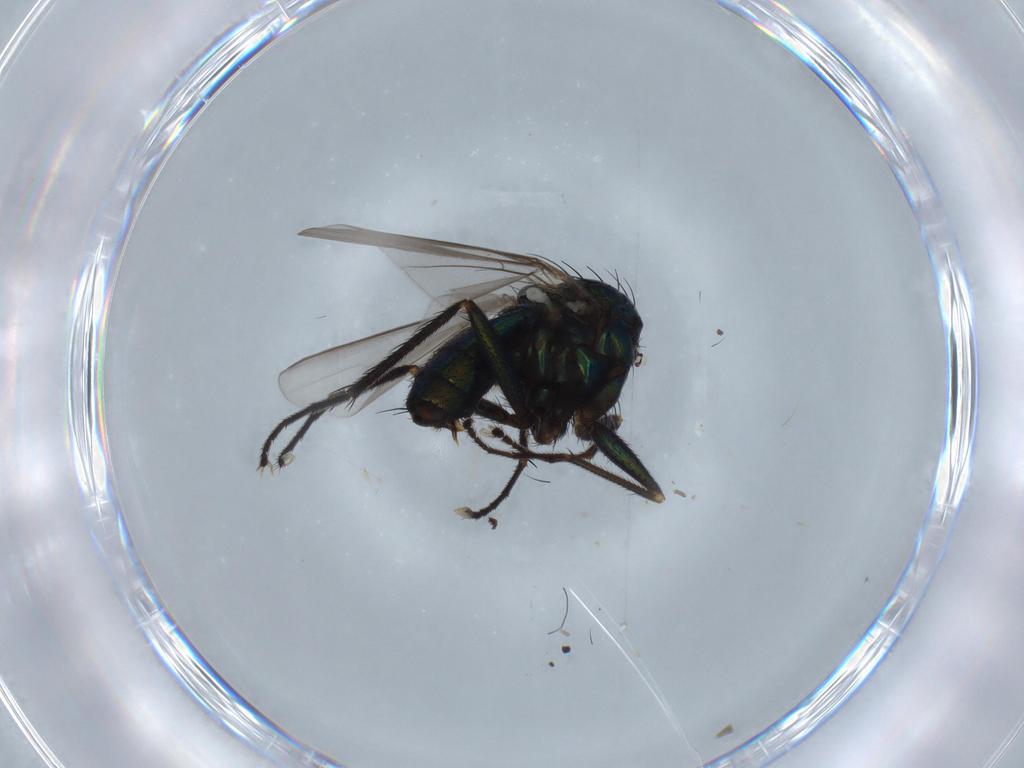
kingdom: Animalia
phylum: Arthropoda
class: Insecta
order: Diptera
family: Dolichopodidae
